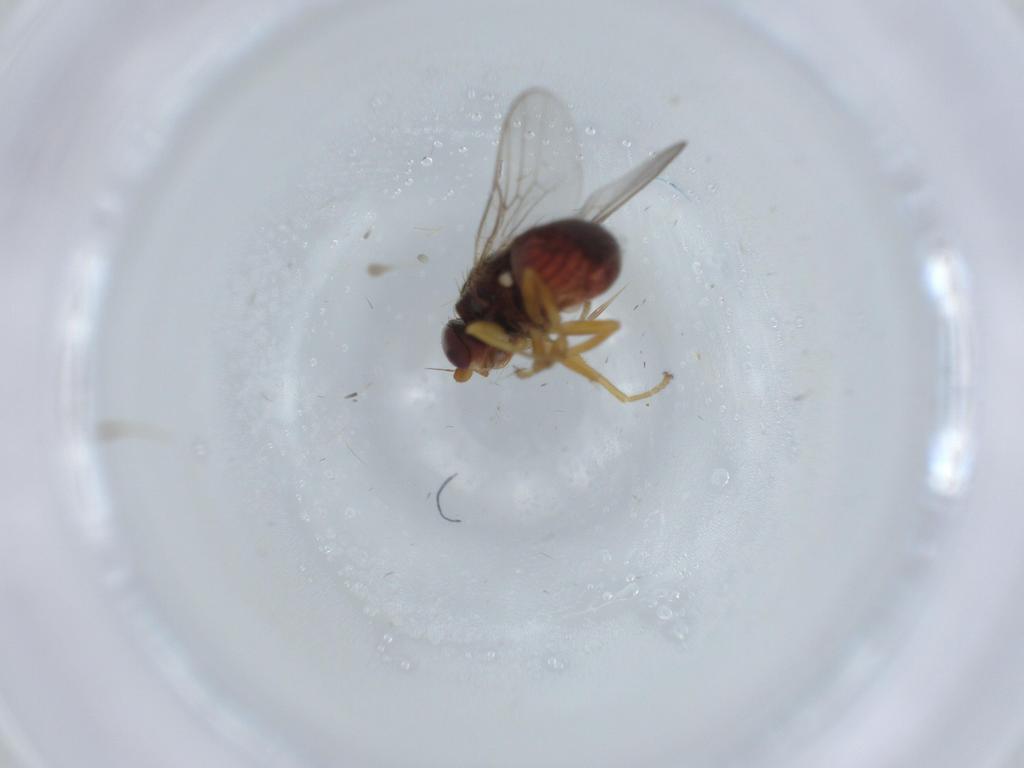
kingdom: Animalia
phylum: Arthropoda
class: Insecta
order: Diptera
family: Chloropidae
